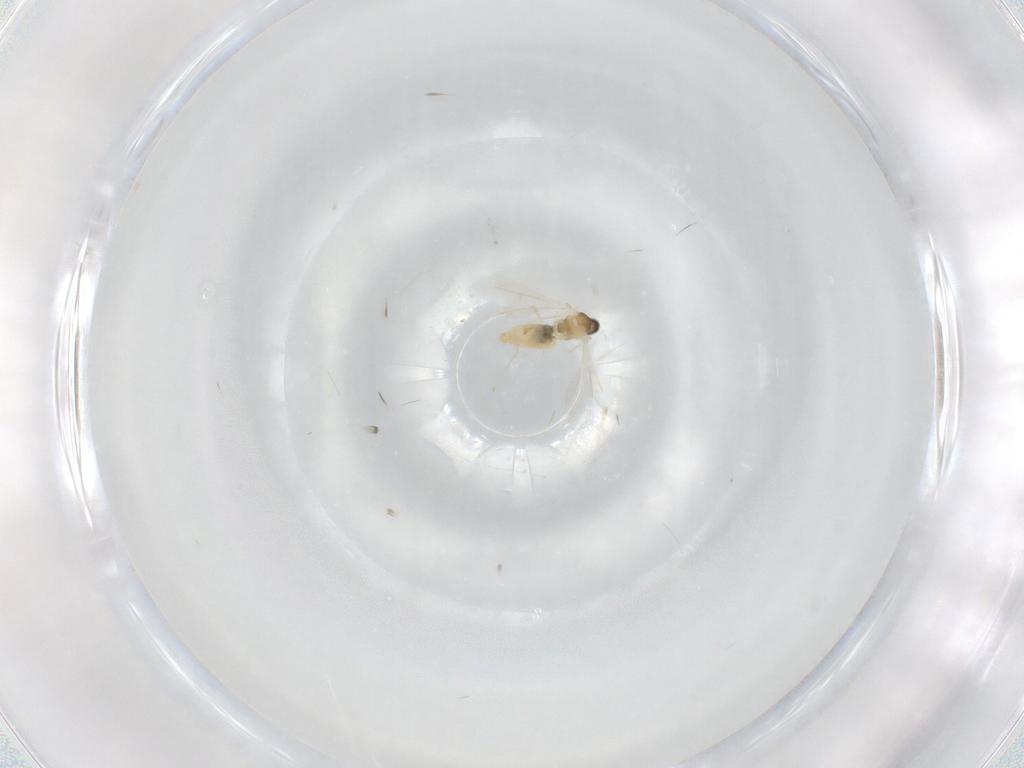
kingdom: Animalia
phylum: Arthropoda
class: Insecta
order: Diptera
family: Cecidomyiidae
